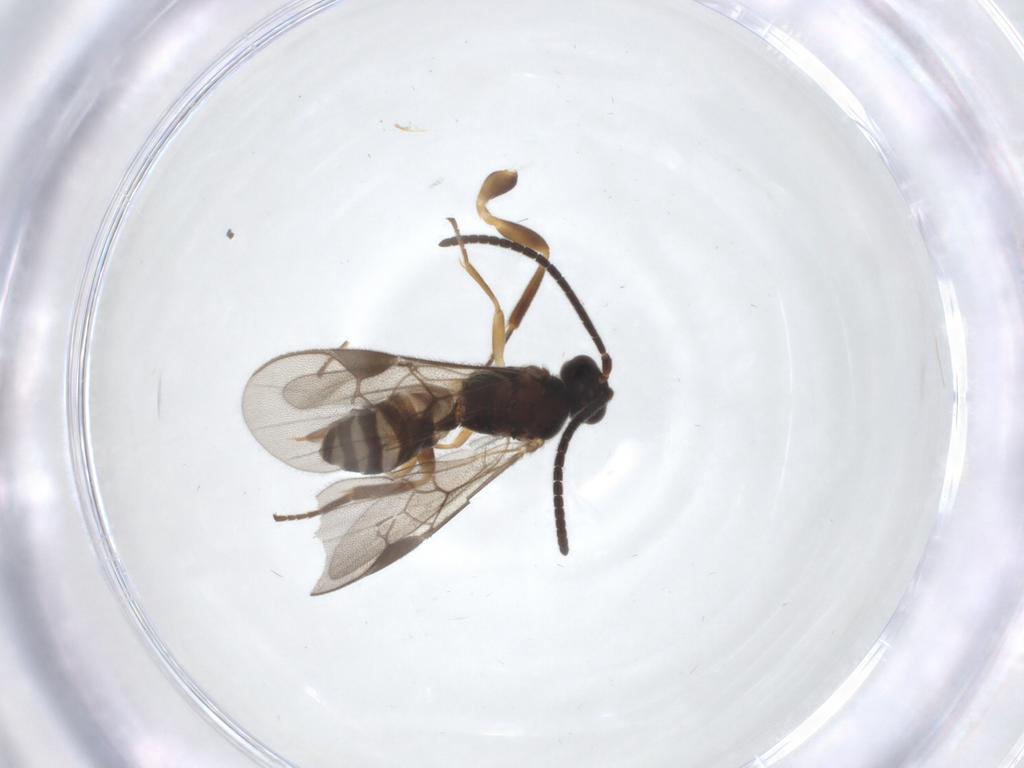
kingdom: Animalia
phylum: Arthropoda
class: Insecta
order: Hymenoptera
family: Braconidae
